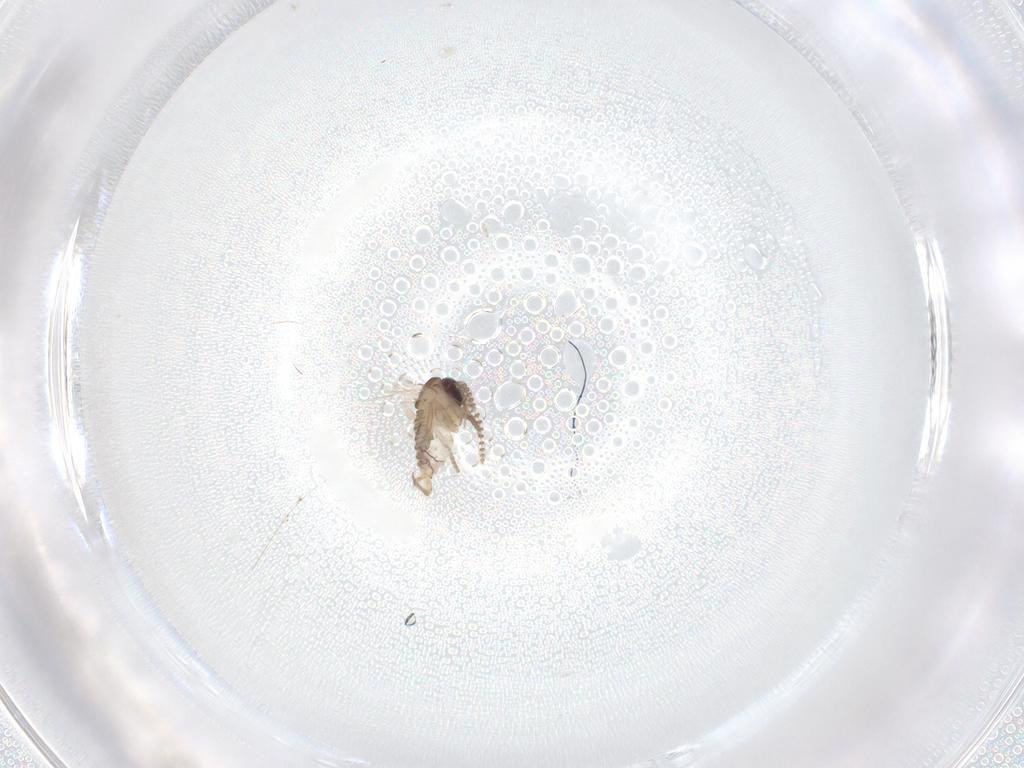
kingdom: Animalia
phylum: Arthropoda
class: Insecta
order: Diptera
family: Psychodidae
